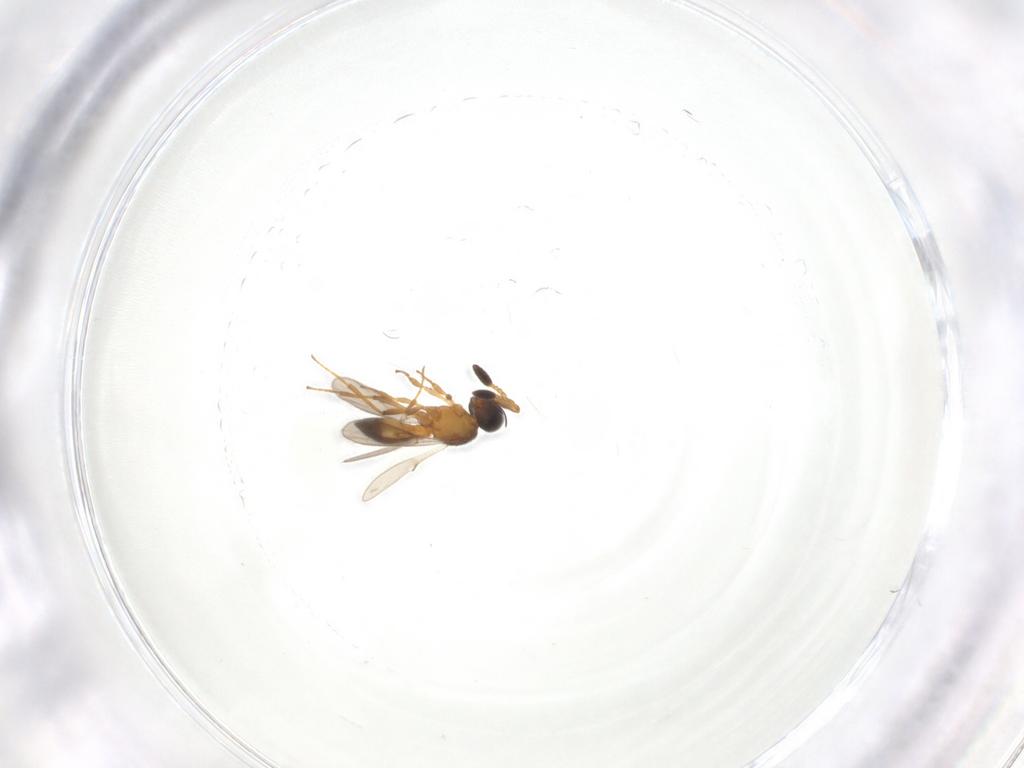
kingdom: Animalia
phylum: Arthropoda
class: Insecta
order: Hymenoptera
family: Scelionidae
